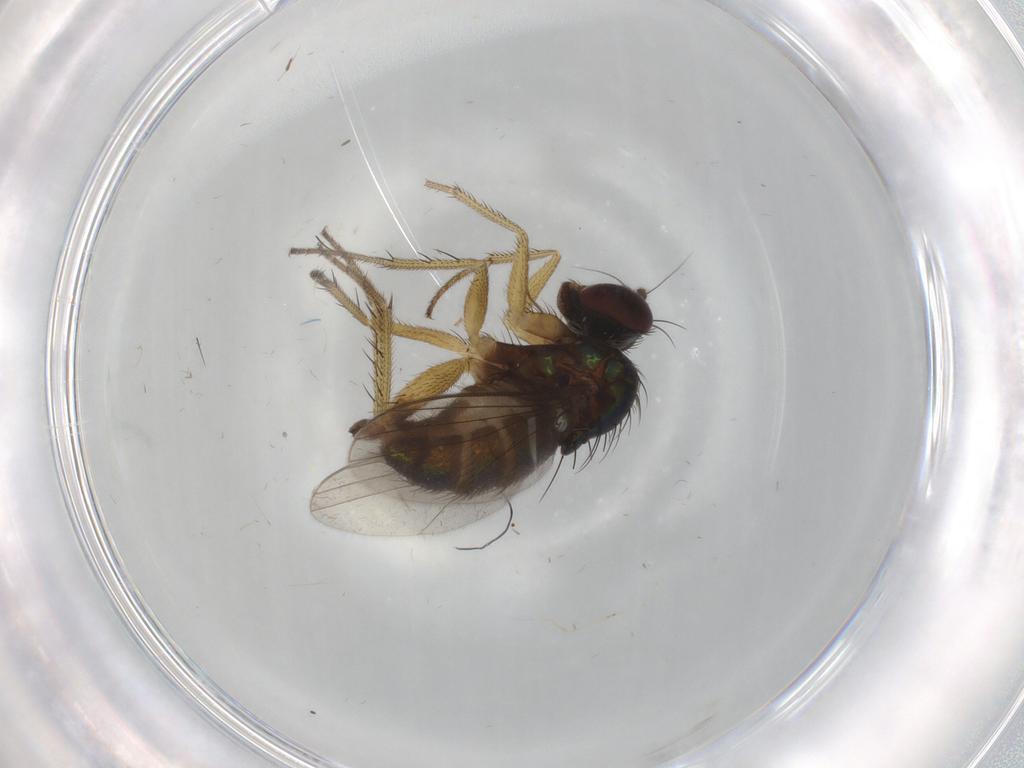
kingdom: Animalia
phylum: Arthropoda
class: Insecta
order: Diptera
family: Dolichopodidae
